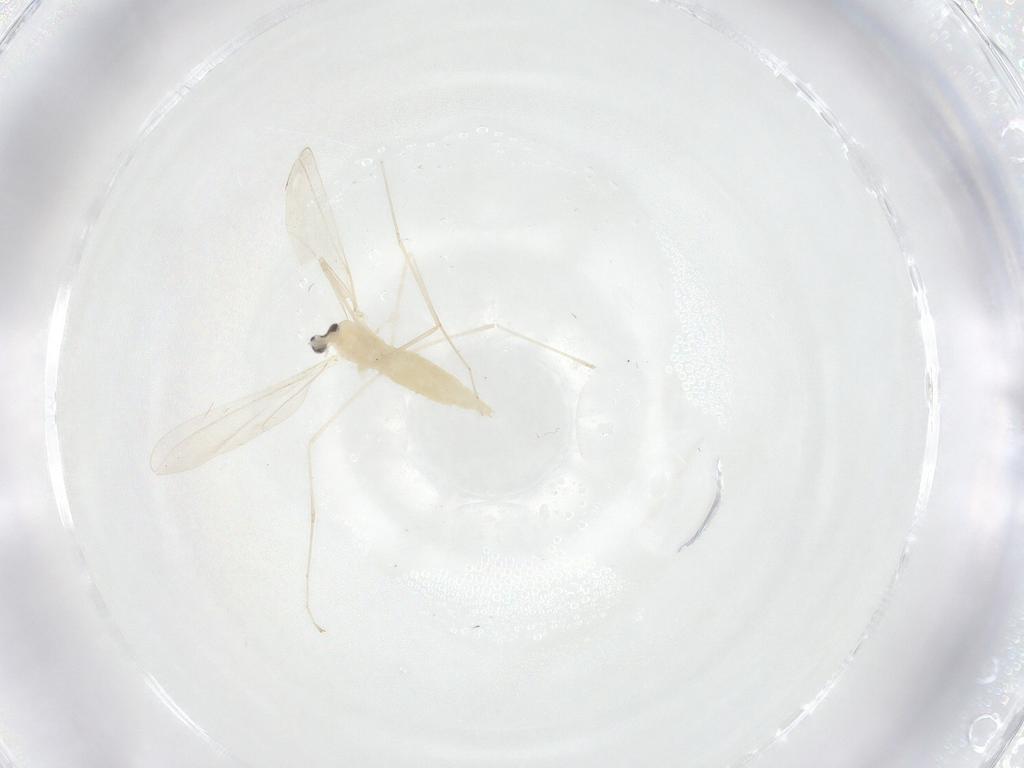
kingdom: Animalia
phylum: Arthropoda
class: Insecta
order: Diptera
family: Cecidomyiidae
